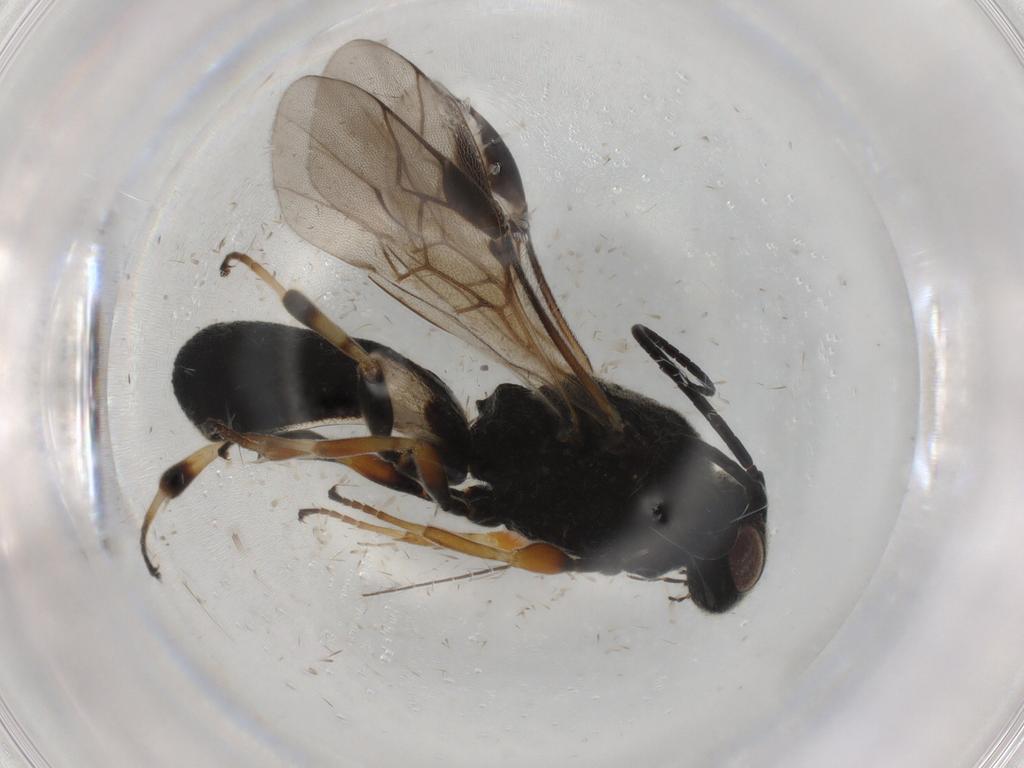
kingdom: Animalia
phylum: Arthropoda
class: Insecta
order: Hymenoptera
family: Braconidae
